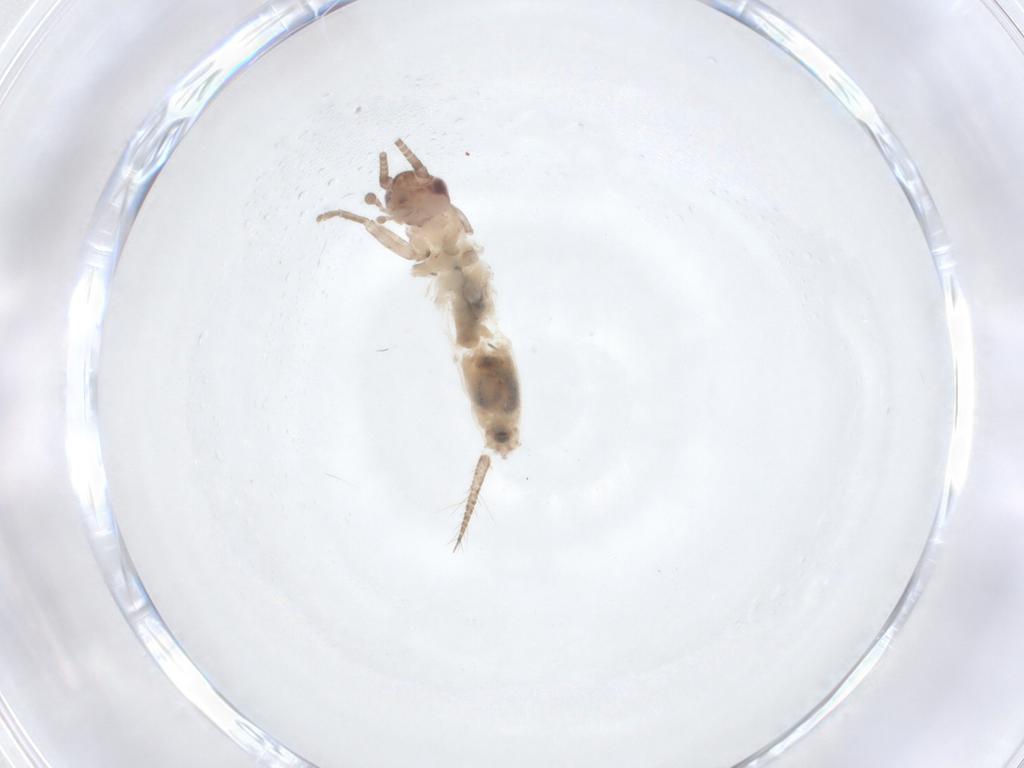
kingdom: Animalia
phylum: Arthropoda
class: Insecta
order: Orthoptera
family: Mogoplistidae
